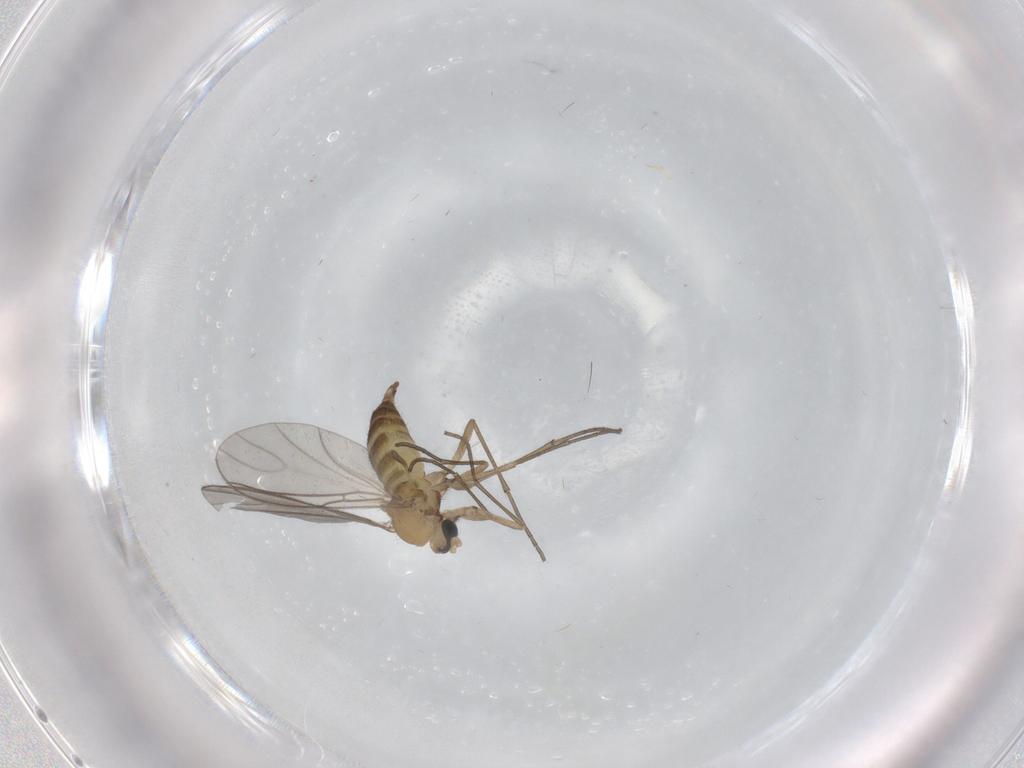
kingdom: Animalia
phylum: Arthropoda
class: Insecta
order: Diptera
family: Sciaridae
